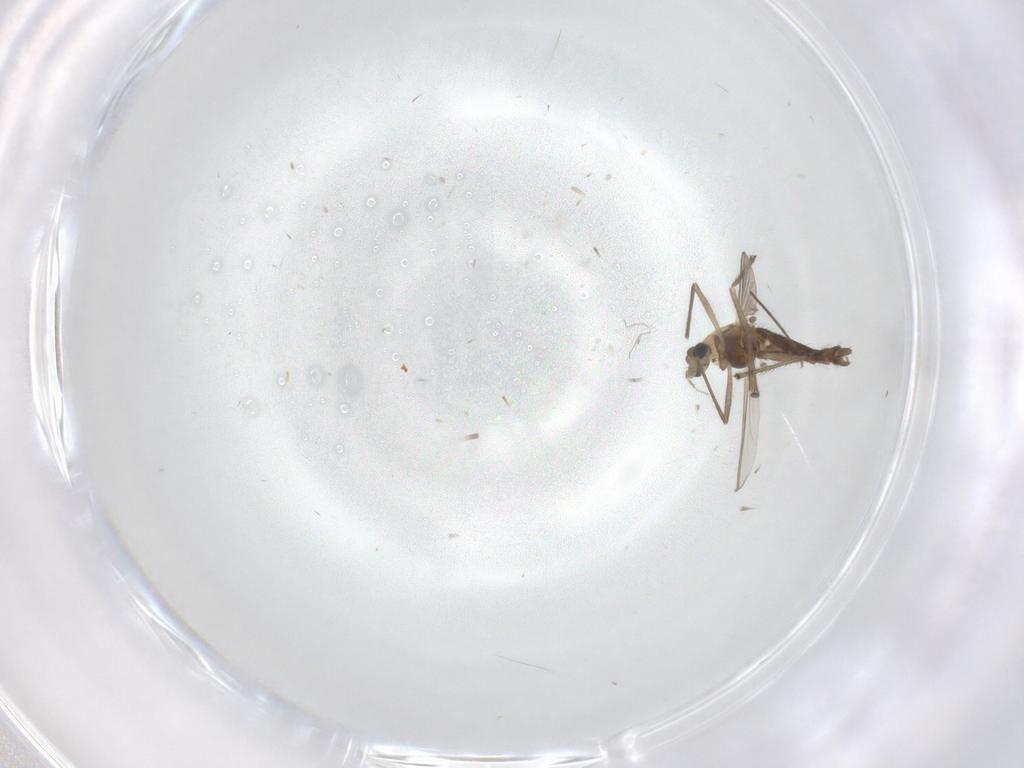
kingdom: Animalia
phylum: Arthropoda
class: Insecta
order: Diptera
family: Chironomidae
